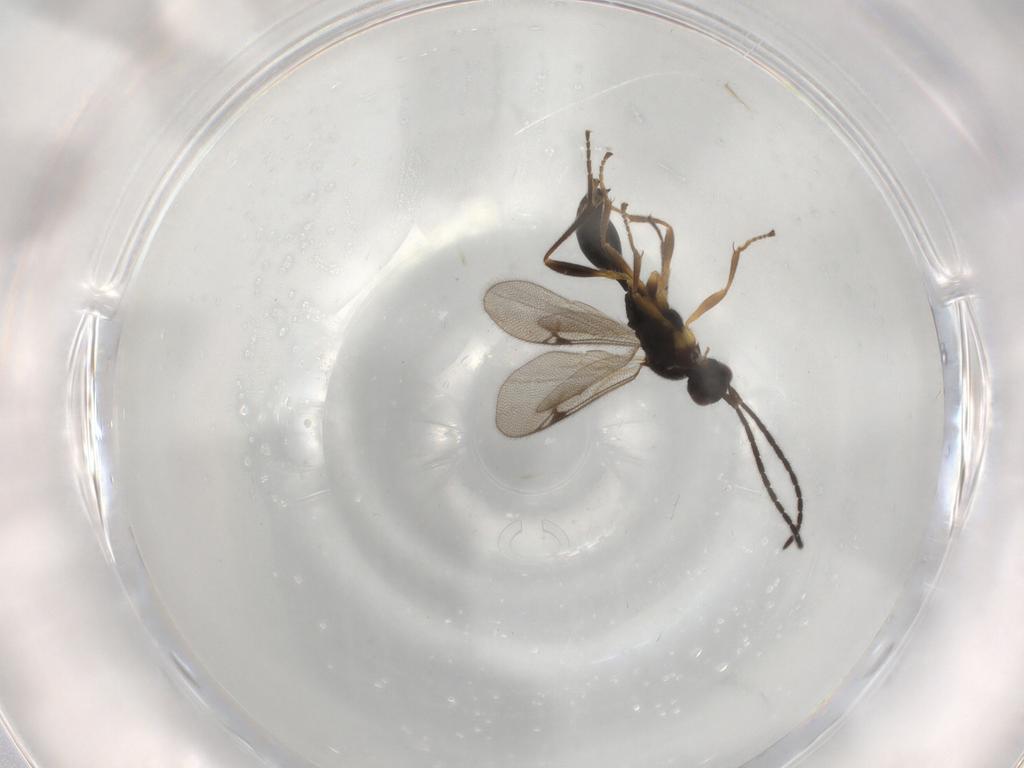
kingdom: Animalia
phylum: Arthropoda
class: Insecta
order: Hymenoptera
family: Proctotrupidae
